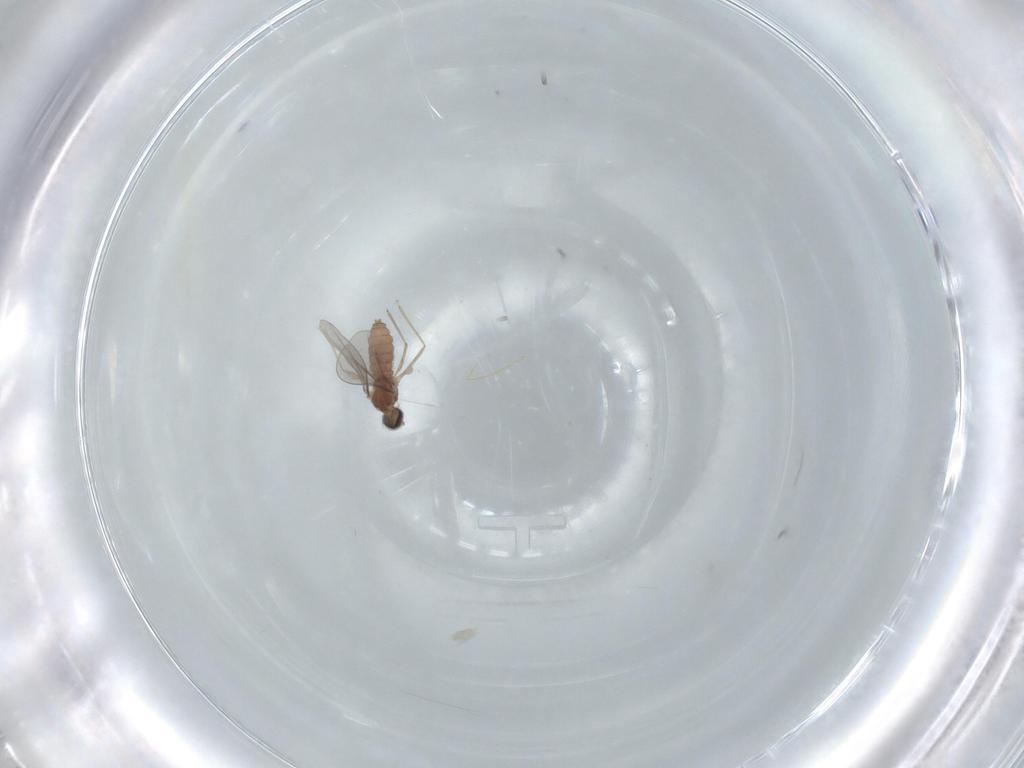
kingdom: Animalia
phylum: Arthropoda
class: Insecta
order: Diptera
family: Cecidomyiidae
